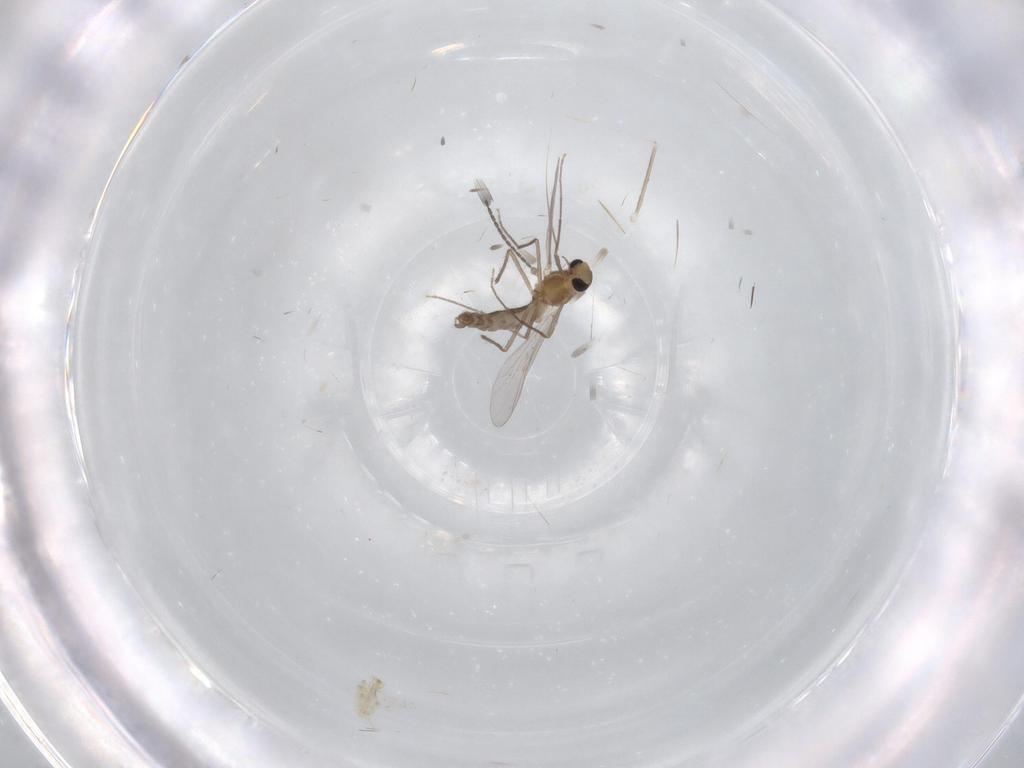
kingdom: Animalia
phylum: Arthropoda
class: Insecta
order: Diptera
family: Chironomidae
